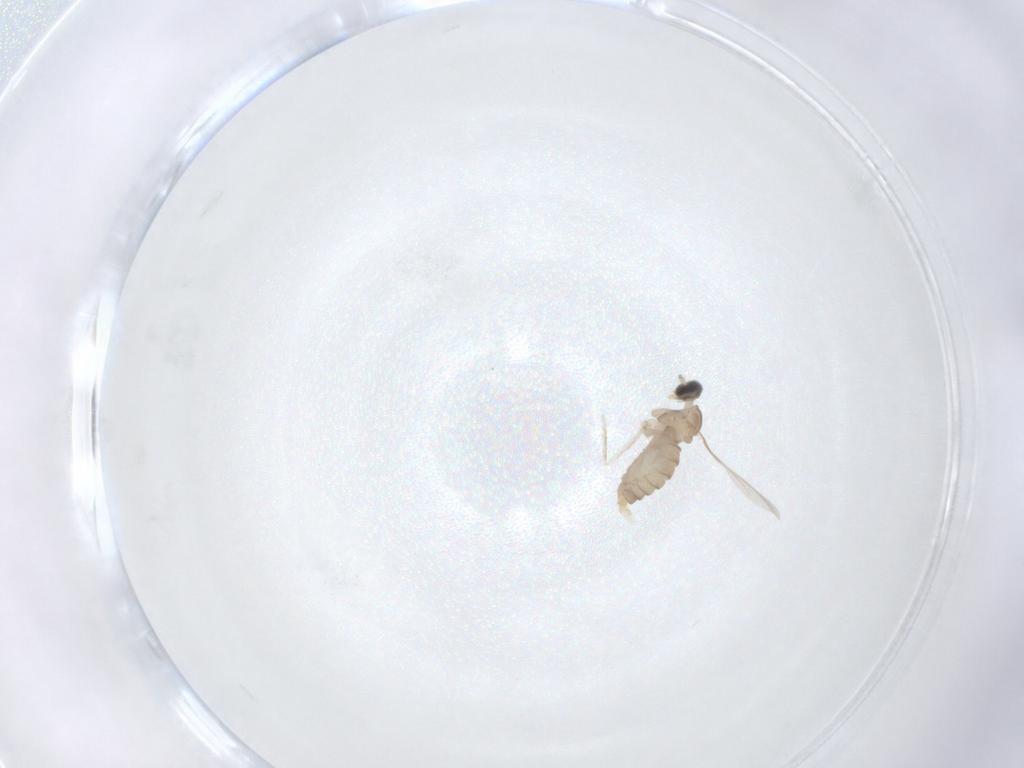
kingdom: Animalia
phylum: Arthropoda
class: Insecta
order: Diptera
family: Cecidomyiidae
